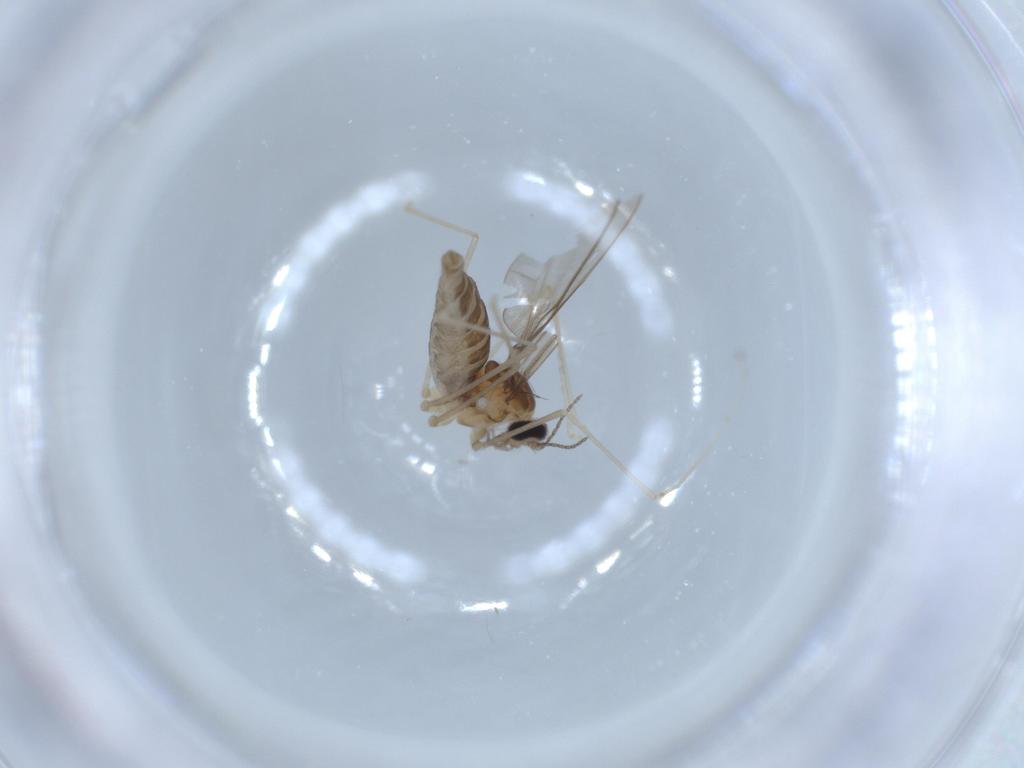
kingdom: Animalia
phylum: Arthropoda
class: Insecta
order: Diptera
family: Cecidomyiidae
